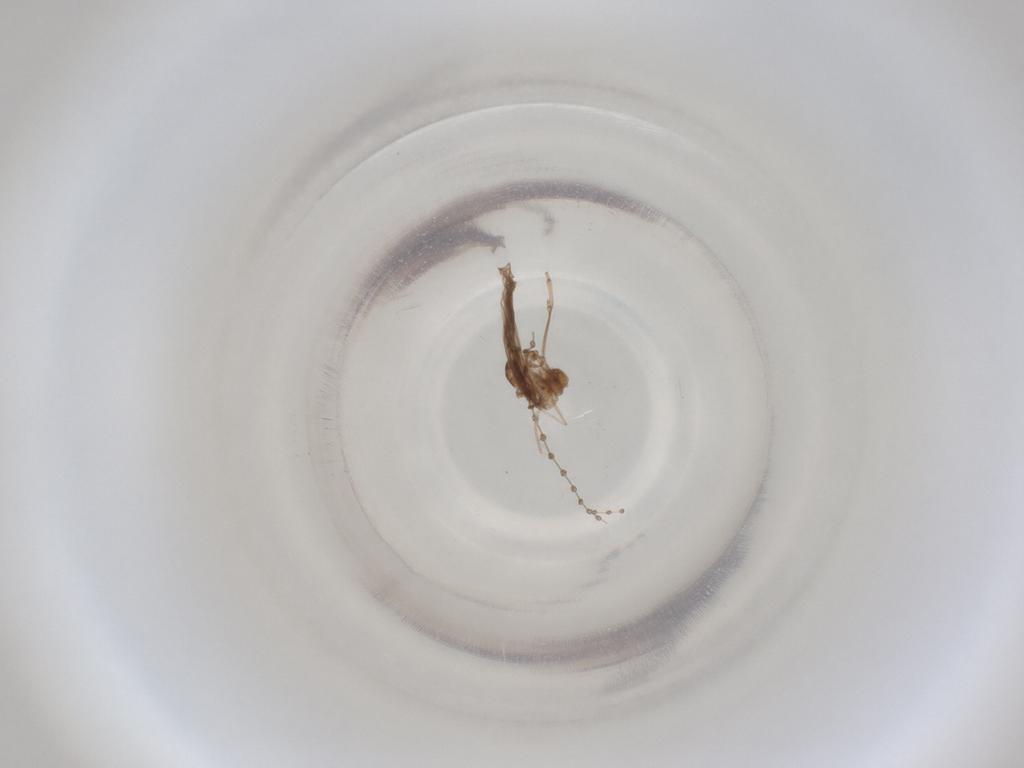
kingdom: Animalia
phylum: Arthropoda
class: Insecta
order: Diptera
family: Cecidomyiidae
